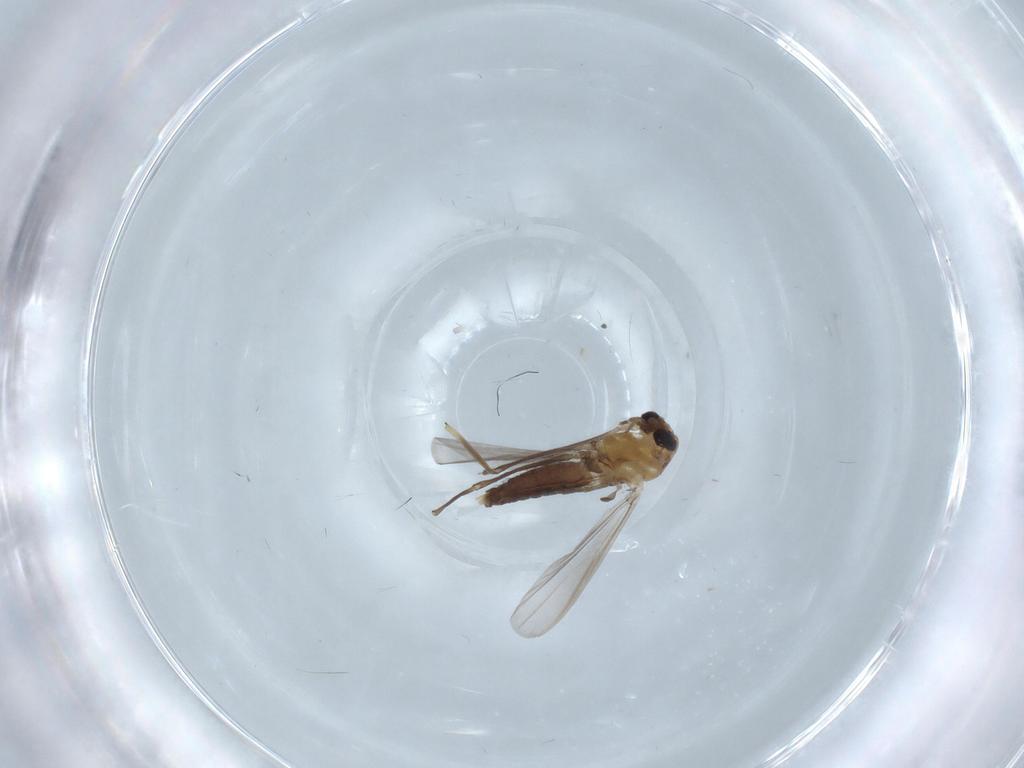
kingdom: Animalia
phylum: Arthropoda
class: Insecta
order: Diptera
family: Chironomidae
